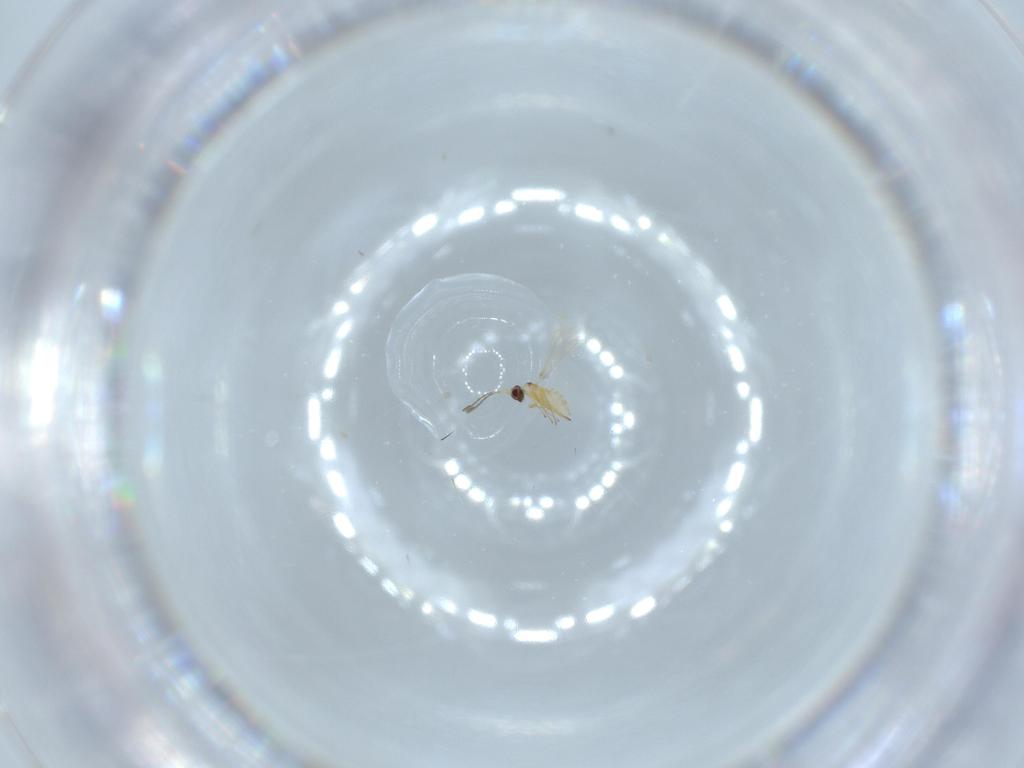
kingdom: Animalia
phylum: Arthropoda
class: Insecta
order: Hymenoptera
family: Mymaridae
